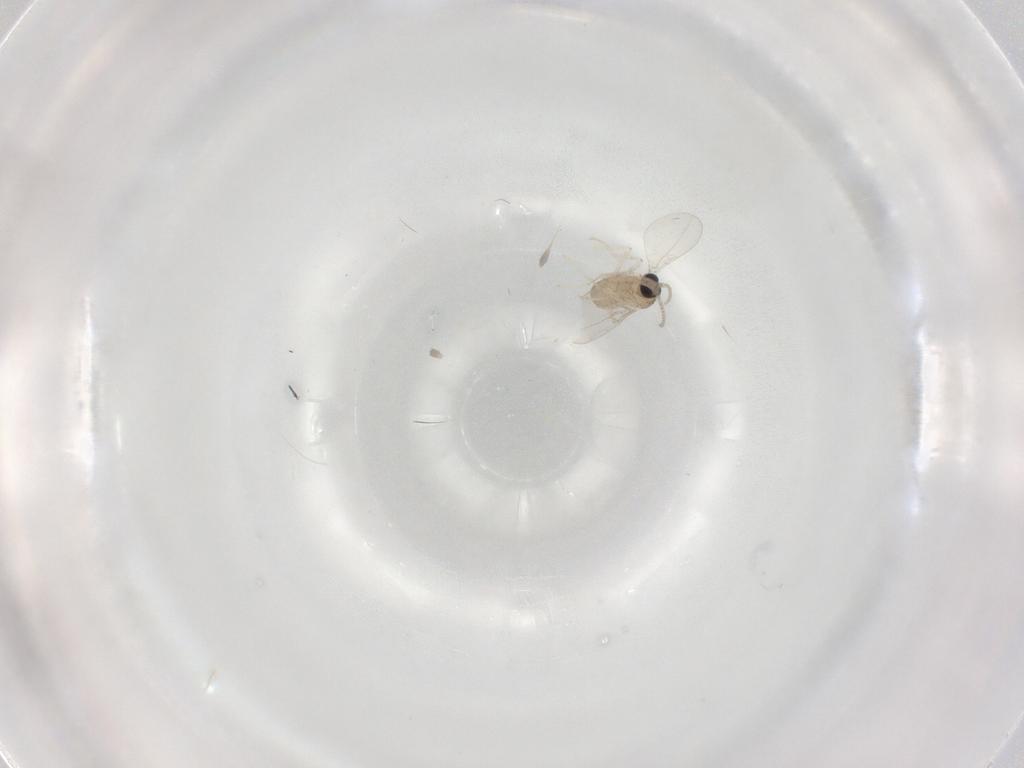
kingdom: Animalia
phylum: Arthropoda
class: Insecta
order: Diptera
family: Cecidomyiidae
